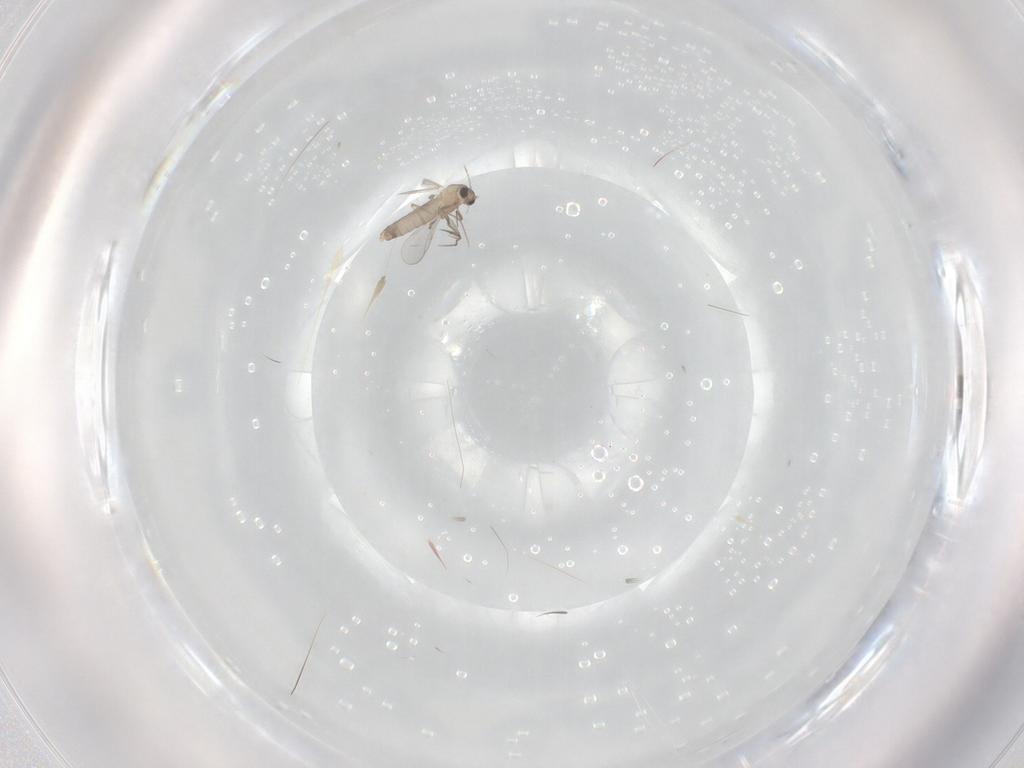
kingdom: Animalia
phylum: Arthropoda
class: Insecta
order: Diptera
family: Chironomidae
